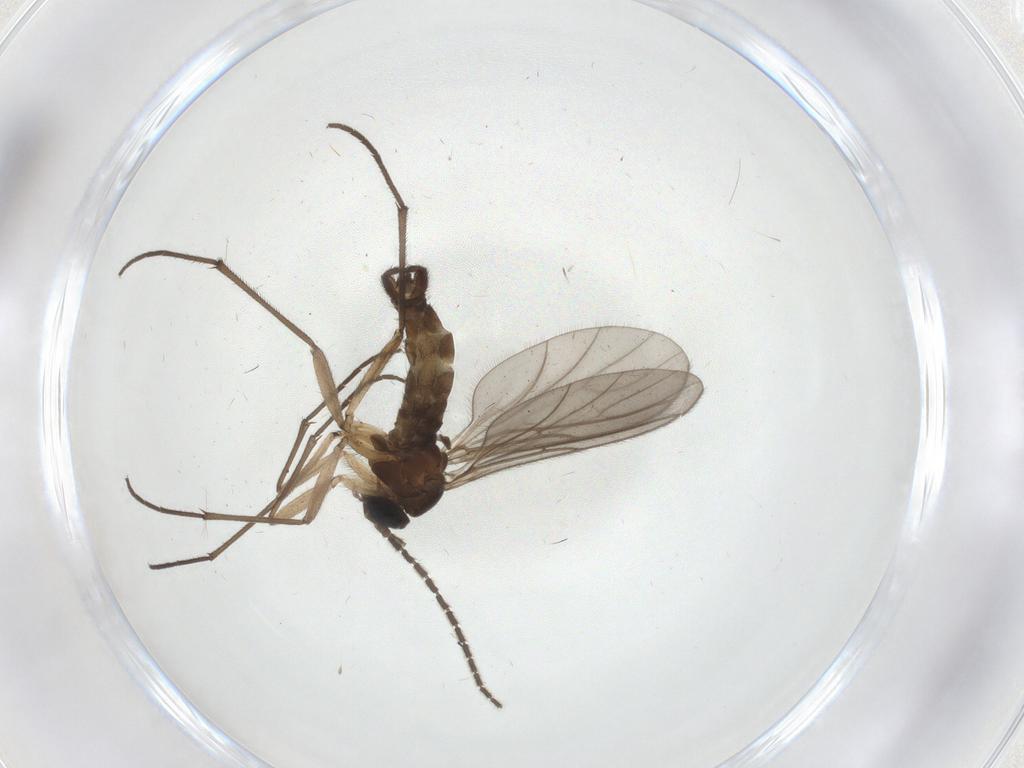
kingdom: Animalia
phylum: Arthropoda
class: Insecta
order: Diptera
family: Sciaridae
